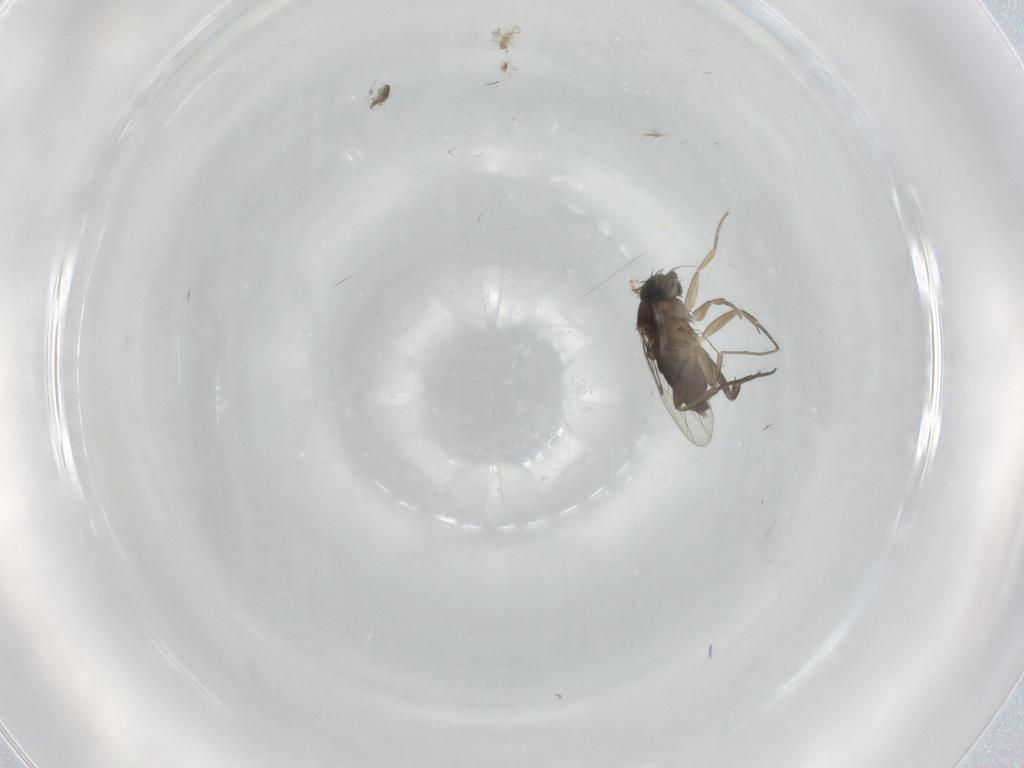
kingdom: Animalia
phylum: Arthropoda
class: Insecta
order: Diptera
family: Phoridae
